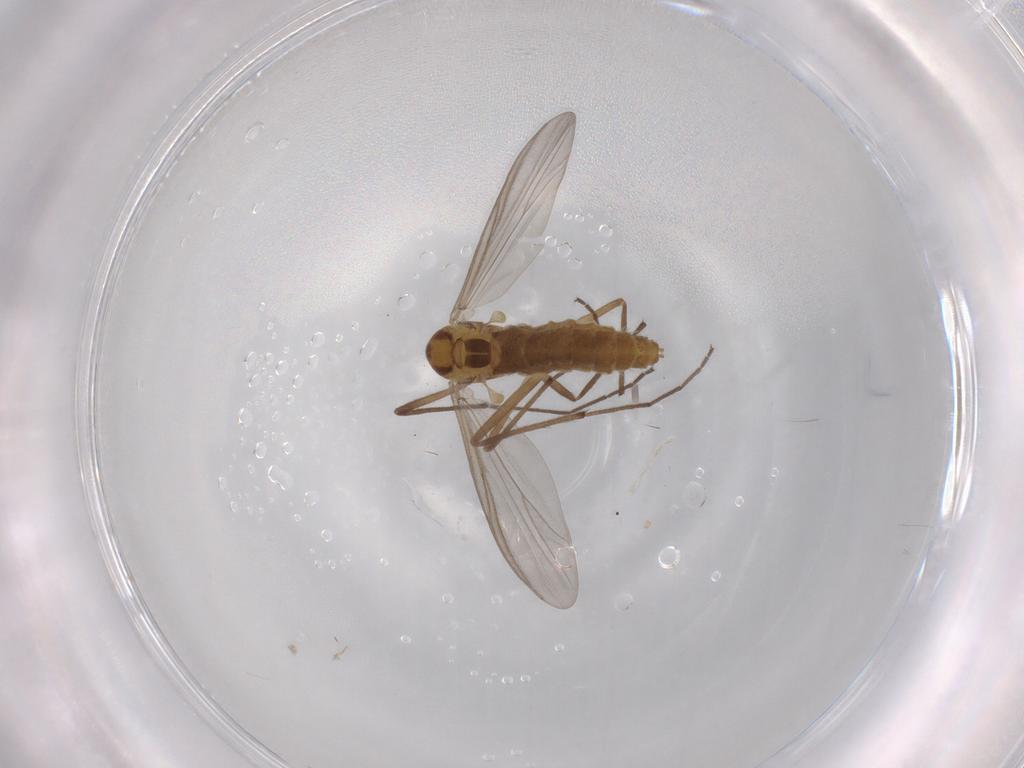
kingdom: Animalia
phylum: Arthropoda
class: Insecta
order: Diptera
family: Chironomidae
